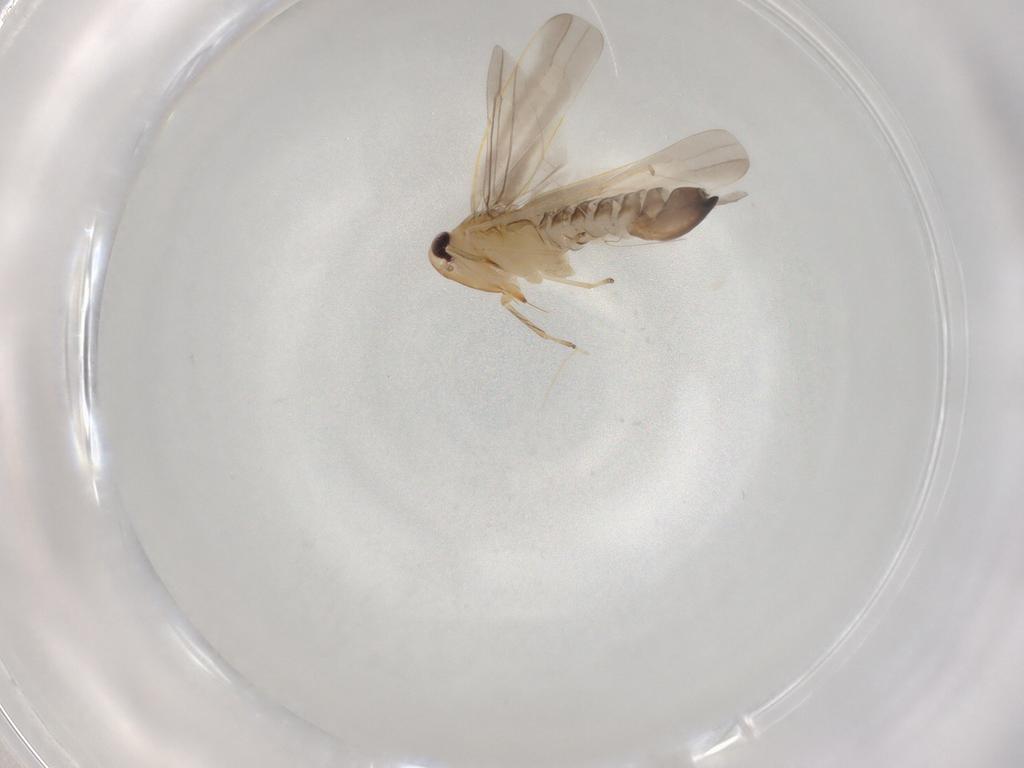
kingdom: Animalia
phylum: Arthropoda
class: Insecta
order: Hemiptera
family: Cicadellidae
